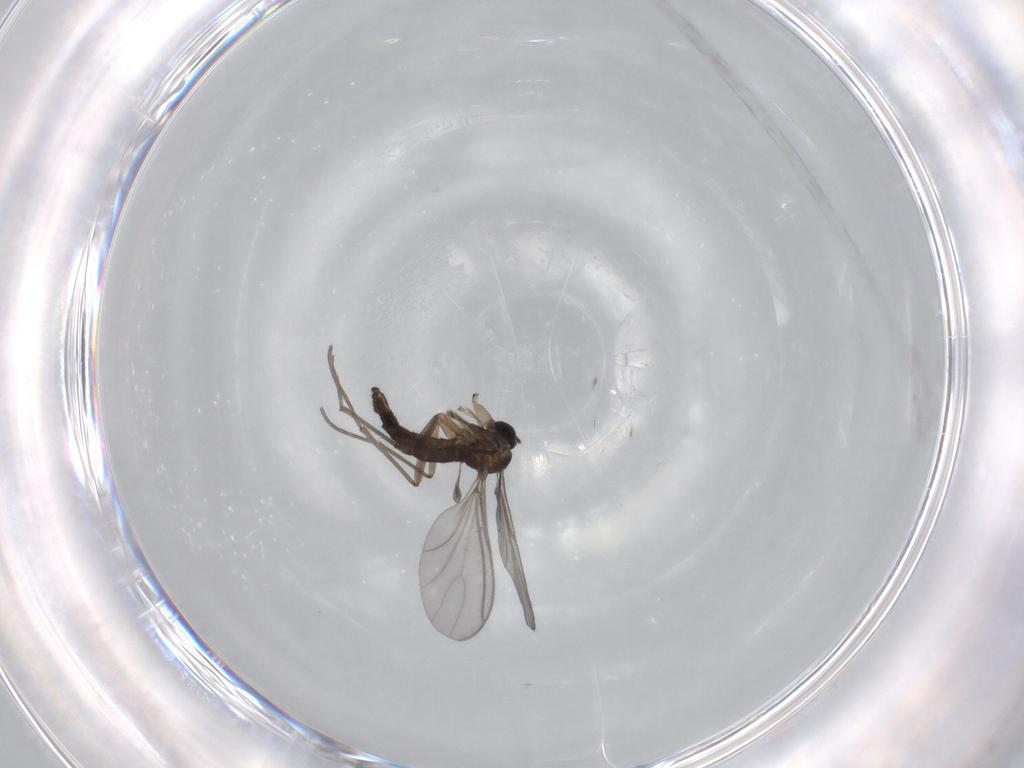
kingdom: Animalia
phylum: Arthropoda
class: Insecta
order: Diptera
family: Sciaridae
